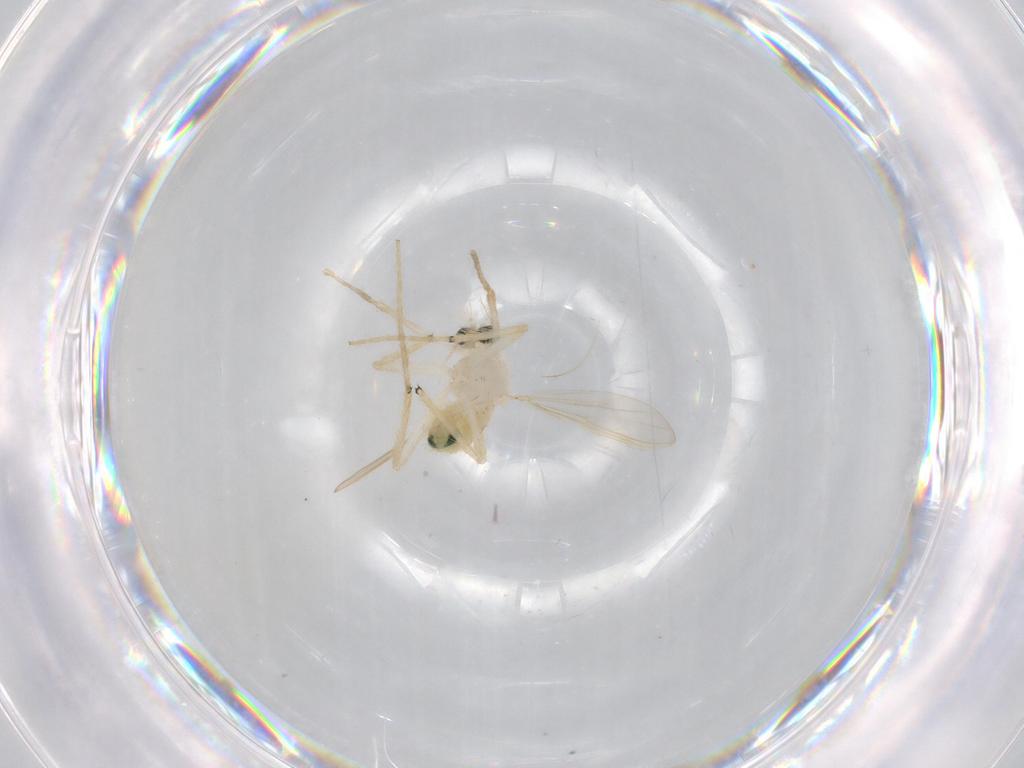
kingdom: Animalia
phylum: Arthropoda
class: Insecta
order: Diptera
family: Chironomidae
